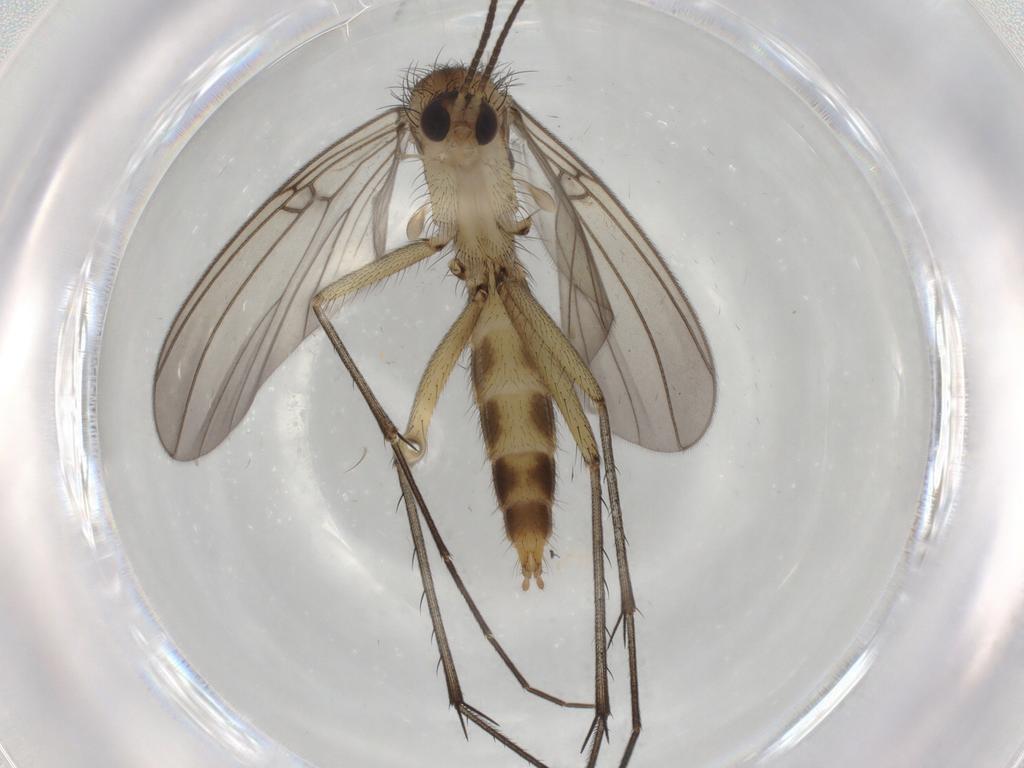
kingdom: Animalia
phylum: Arthropoda
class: Insecta
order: Diptera
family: Mycetophilidae
